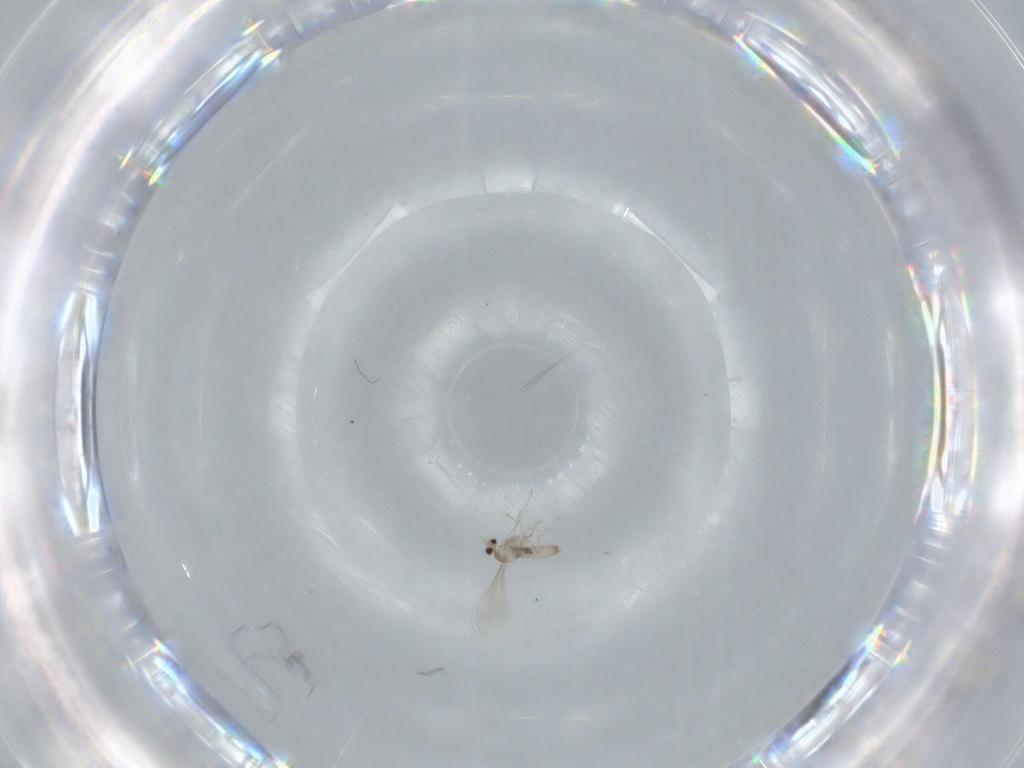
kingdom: Animalia
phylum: Arthropoda
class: Insecta
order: Diptera
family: Cecidomyiidae
